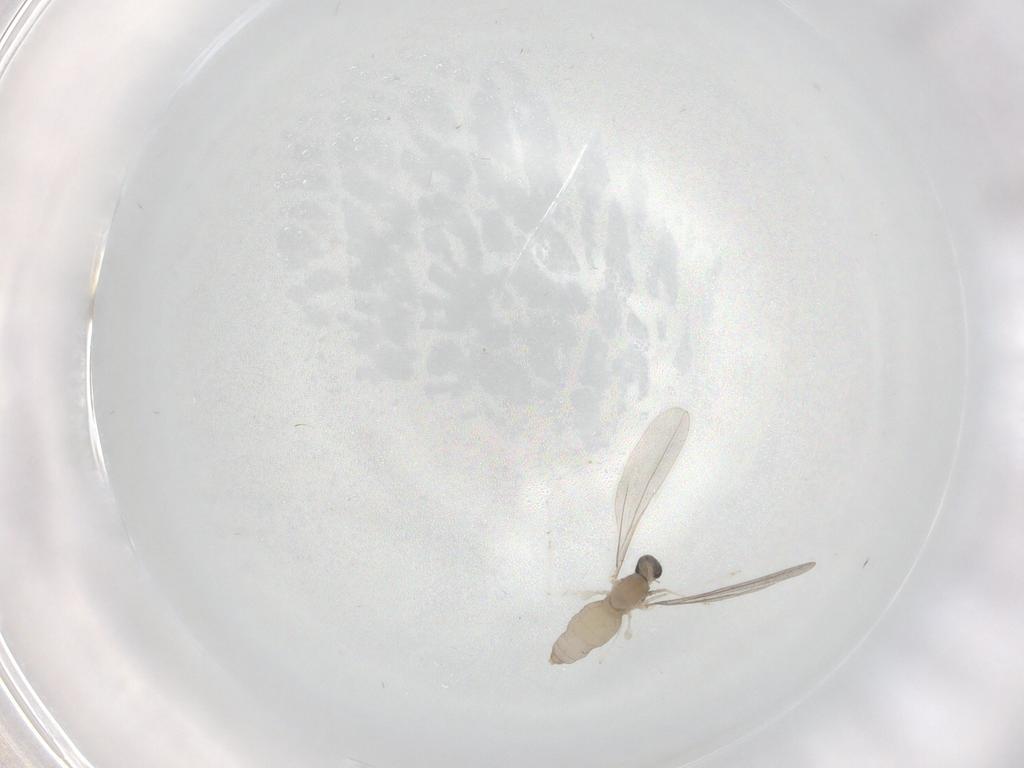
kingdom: Animalia
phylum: Arthropoda
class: Insecta
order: Diptera
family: Cecidomyiidae
